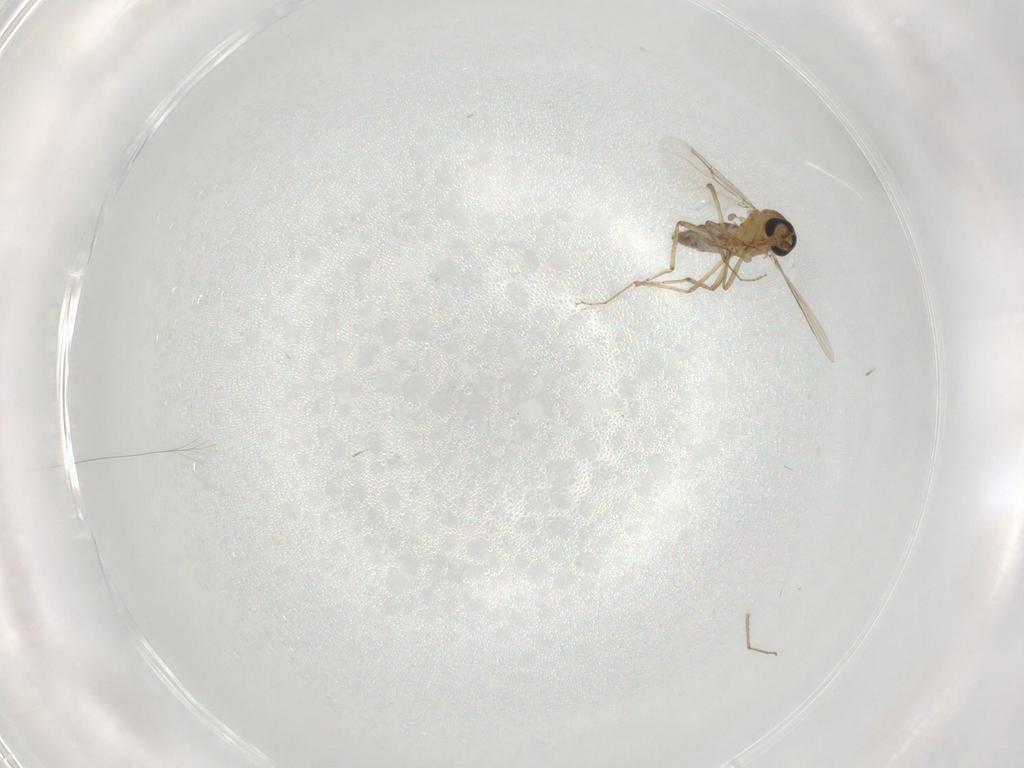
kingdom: Animalia
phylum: Arthropoda
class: Insecta
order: Diptera
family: Ceratopogonidae
